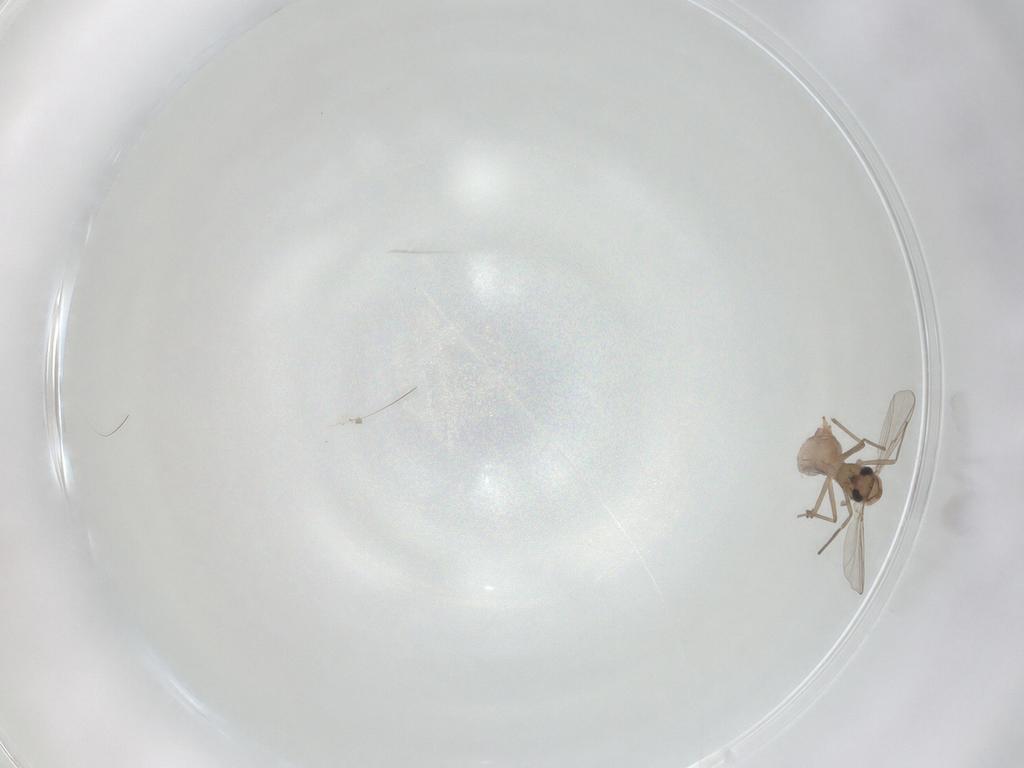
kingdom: Animalia
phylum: Arthropoda
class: Insecta
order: Diptera
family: Chironomidae
